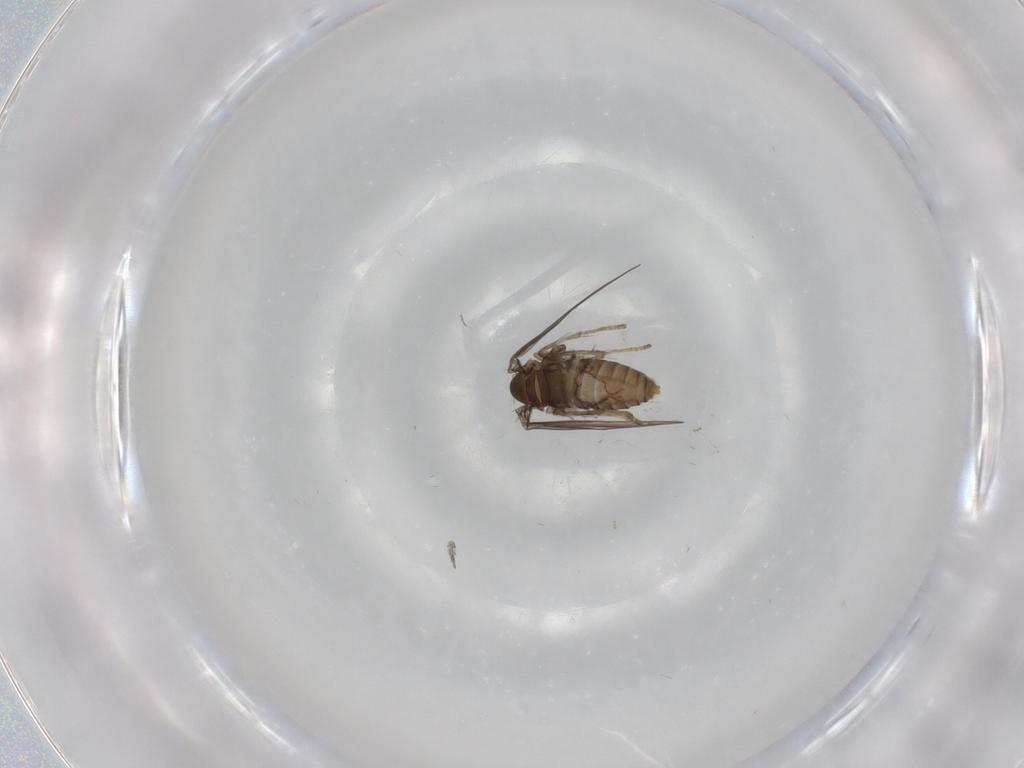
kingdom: Animalia
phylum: Arthropoda
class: Insecta
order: Diptera
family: Psychodidae
